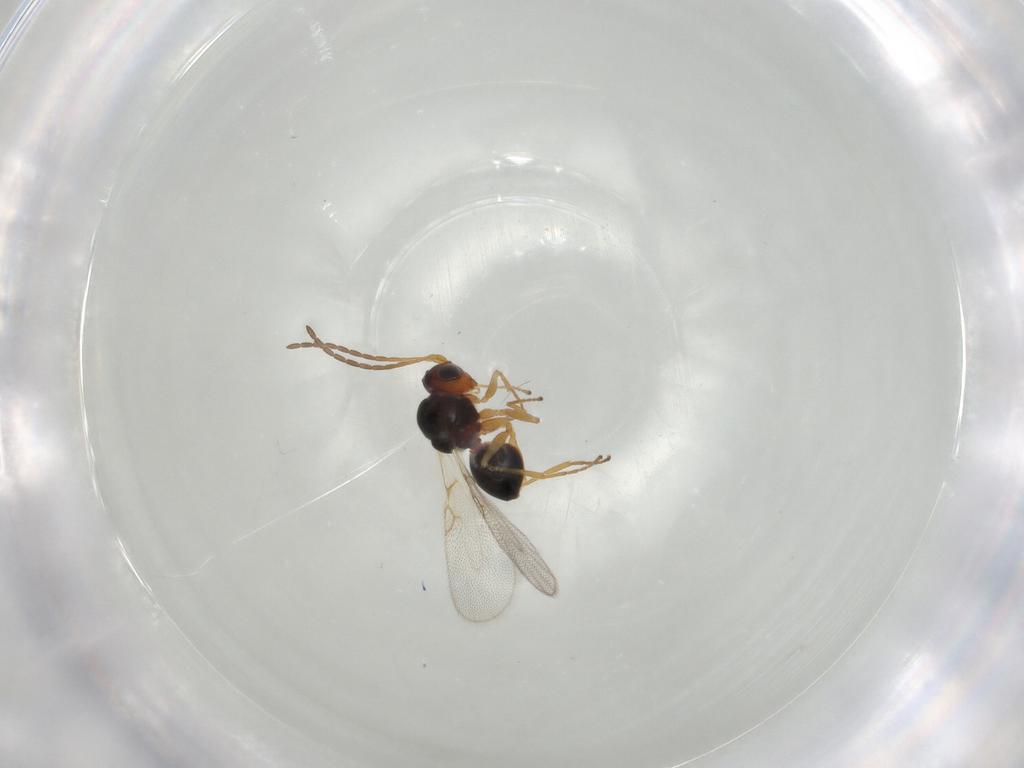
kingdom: Animalia
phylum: Arthropoda
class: Insecta
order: Hymenoptera
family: Figitidae
